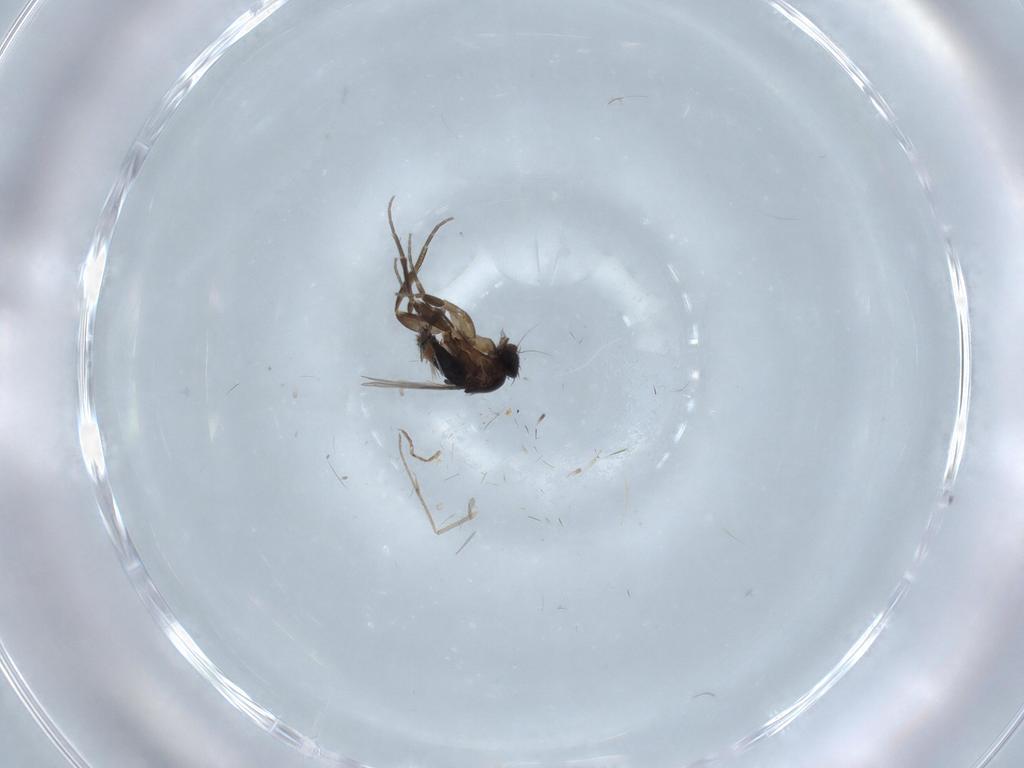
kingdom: Animalia
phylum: Arthropoda
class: Insecta
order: Diptera
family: Phoridae
